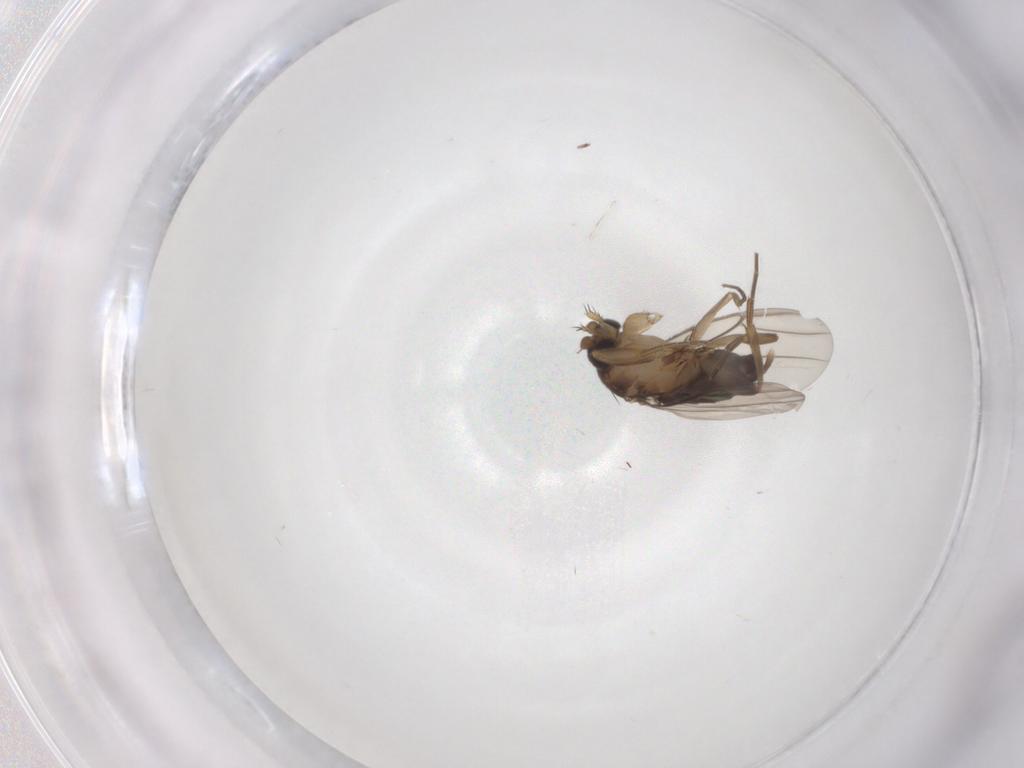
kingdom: Animalia
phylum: Arthropoda
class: Insecta
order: Diptera
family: Phoridae
